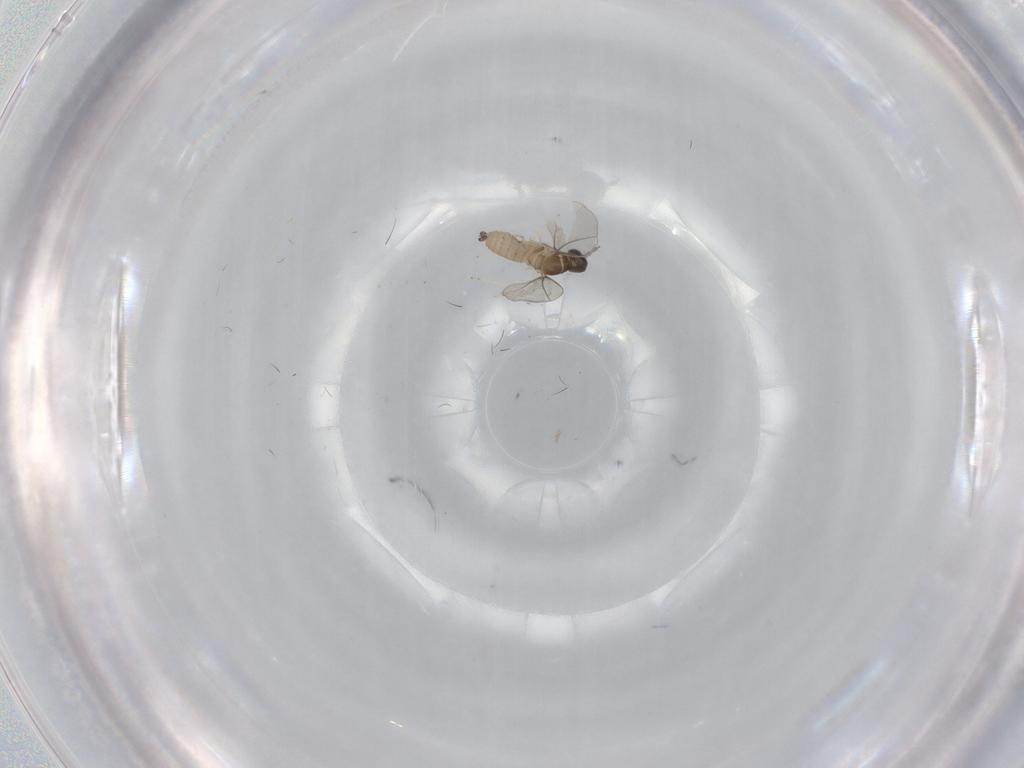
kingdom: Animalia
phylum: Arthropoda
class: Insecta
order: Diptera
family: Cecidomyiidae
